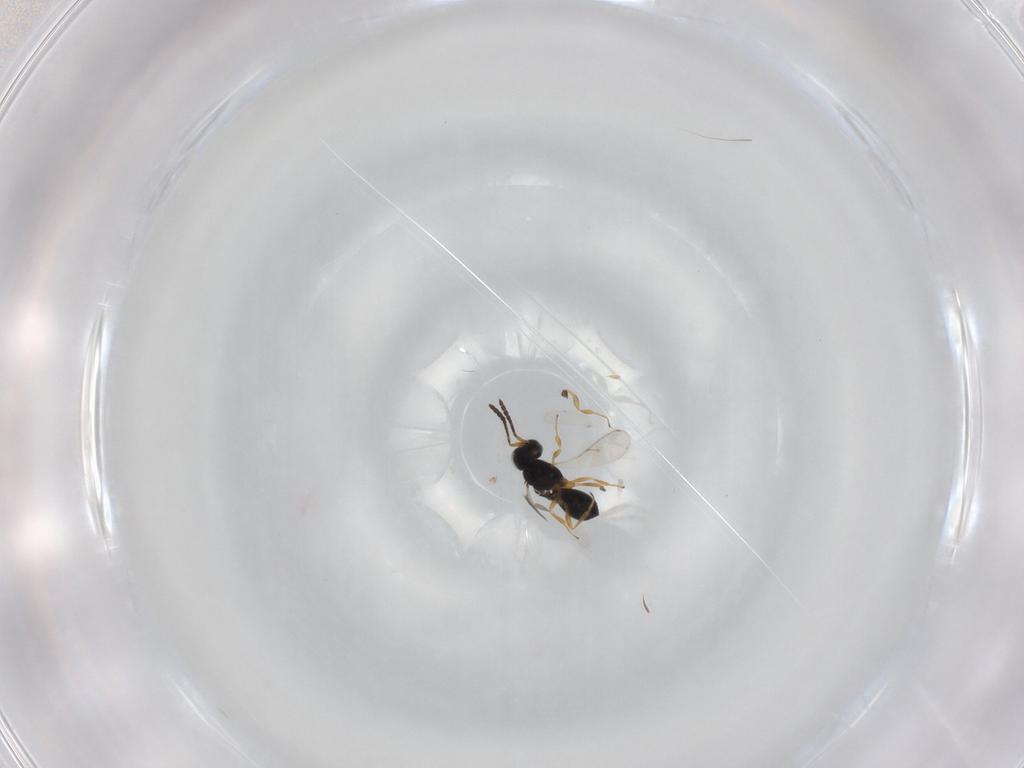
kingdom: Animalia
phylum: Arthropoda
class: Insecta
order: Hymenoptera
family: Scelionidae
